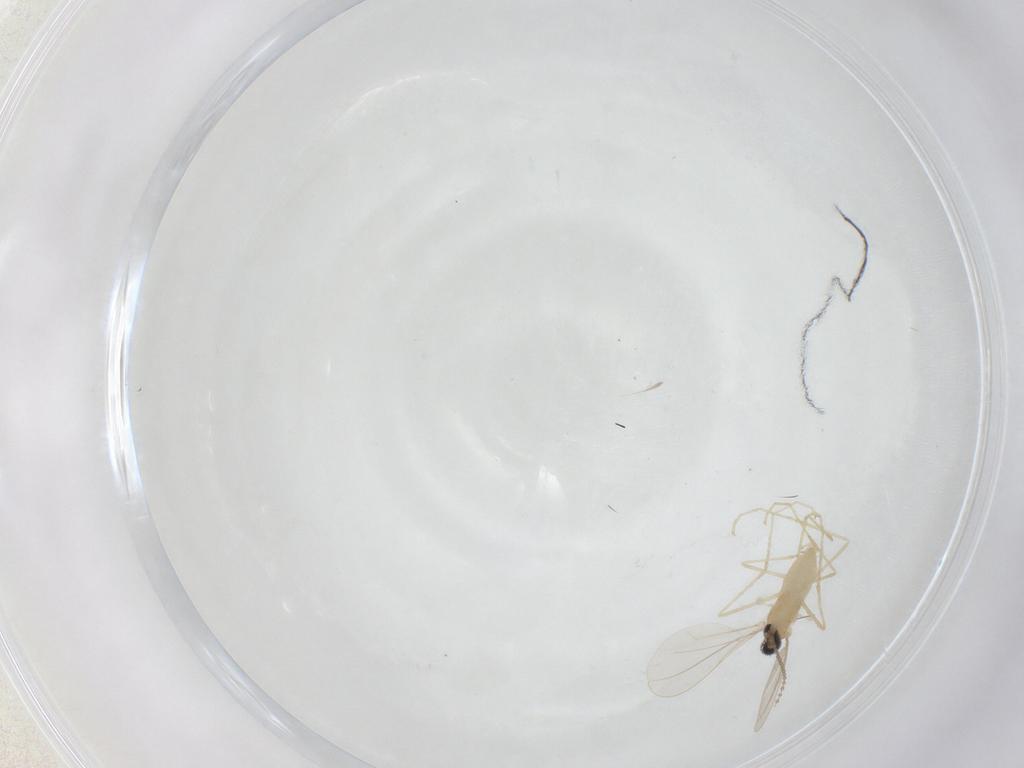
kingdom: Animalia
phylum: Arthropoda
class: Insecta
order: Diptera
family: Cecidomyiidae
